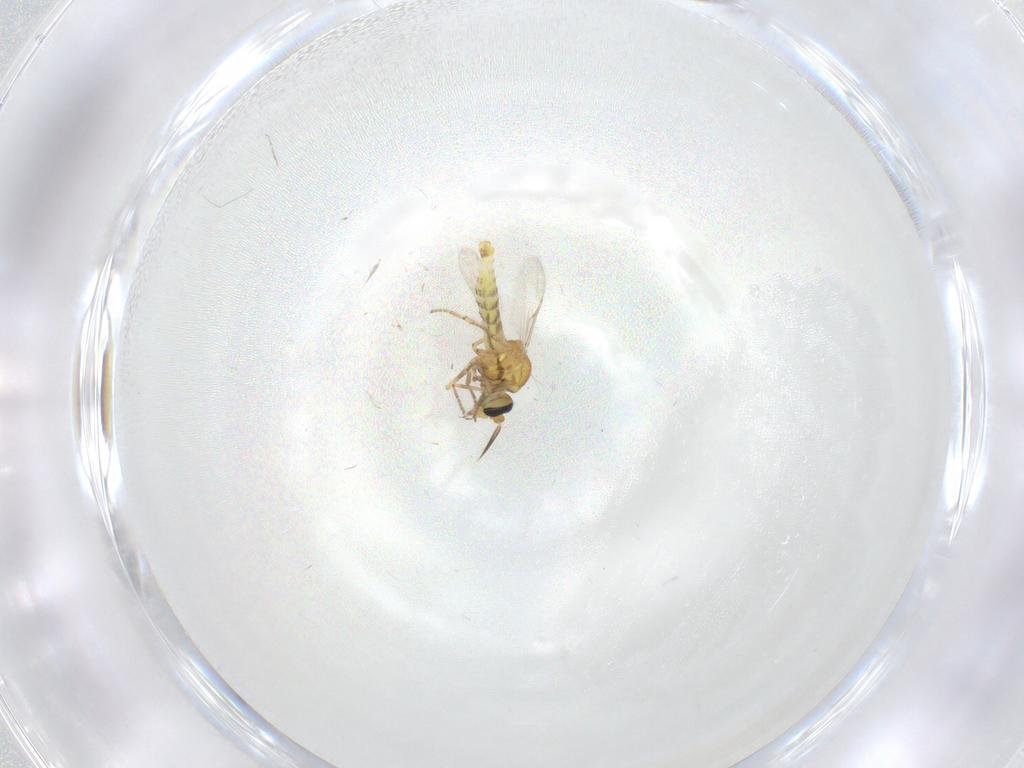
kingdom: Animalia
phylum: Arthropoda
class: Insecta
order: Diptera
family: Ceratopogonidae
